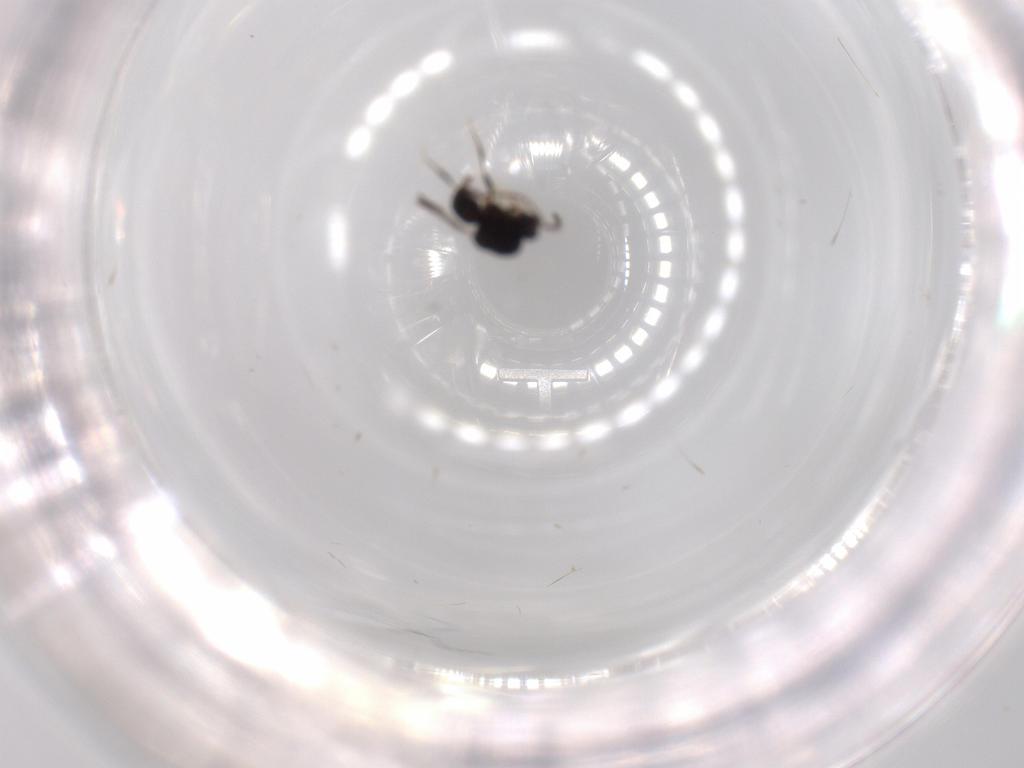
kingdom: Animalia
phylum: Arthropoda
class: Insecta
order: Hymenoptera
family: Ceraphronidae
